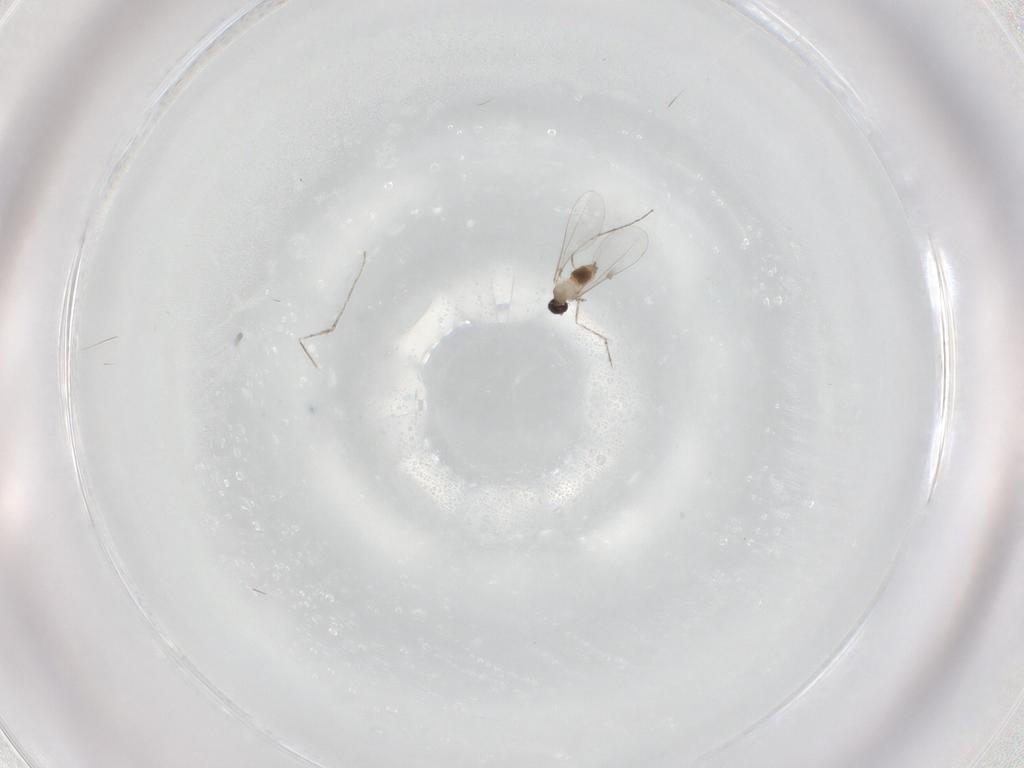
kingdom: Animalia
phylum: Arthropoda
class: Insecta
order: Diptera
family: Cecidomyiidae
